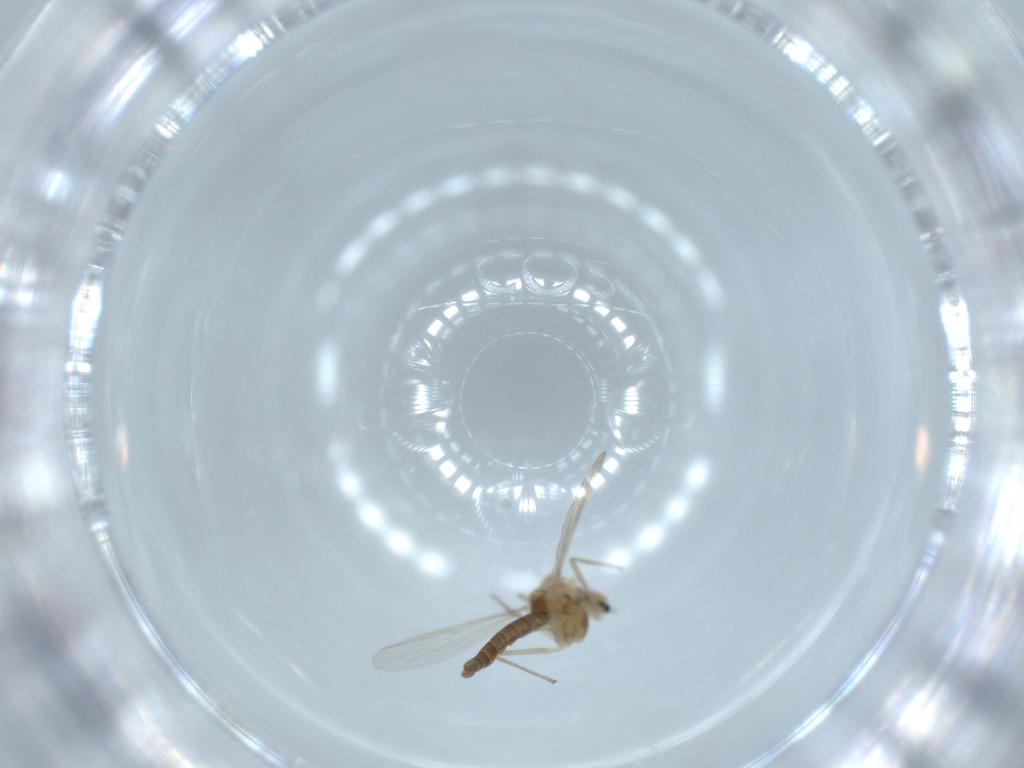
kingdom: Animalia
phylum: Arthropoda
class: Insecta
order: Diptera
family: Chironomidae
